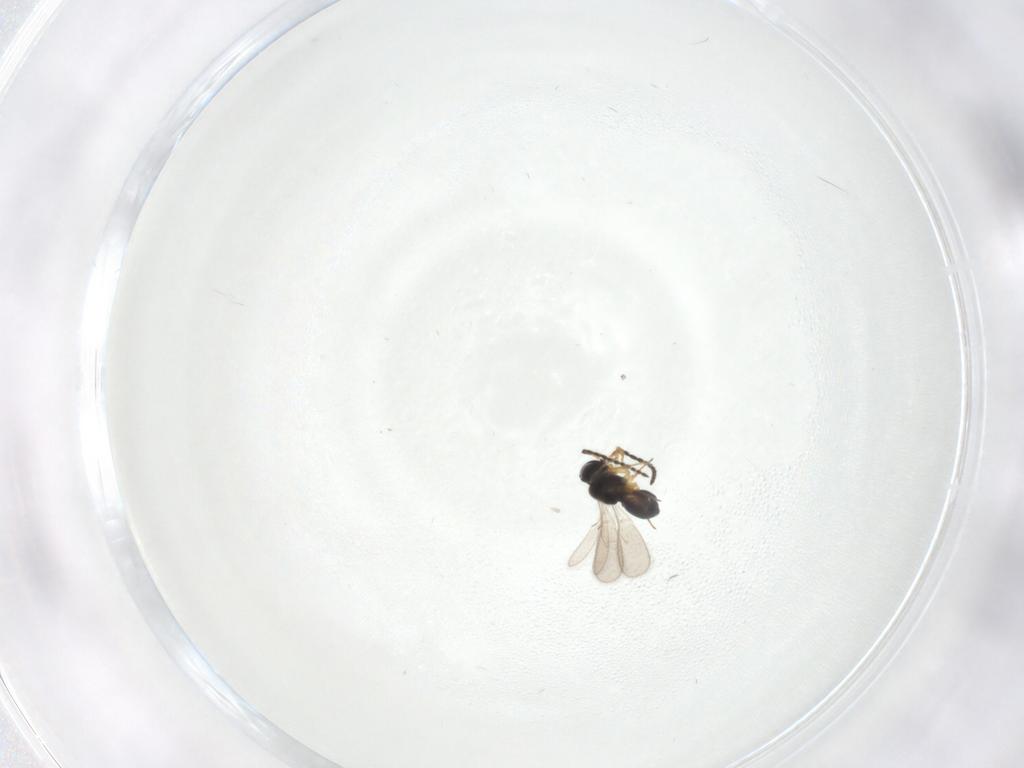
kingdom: Animalia
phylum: Arthropoda
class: Insecta
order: Hymenoptera
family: Scelionidae
